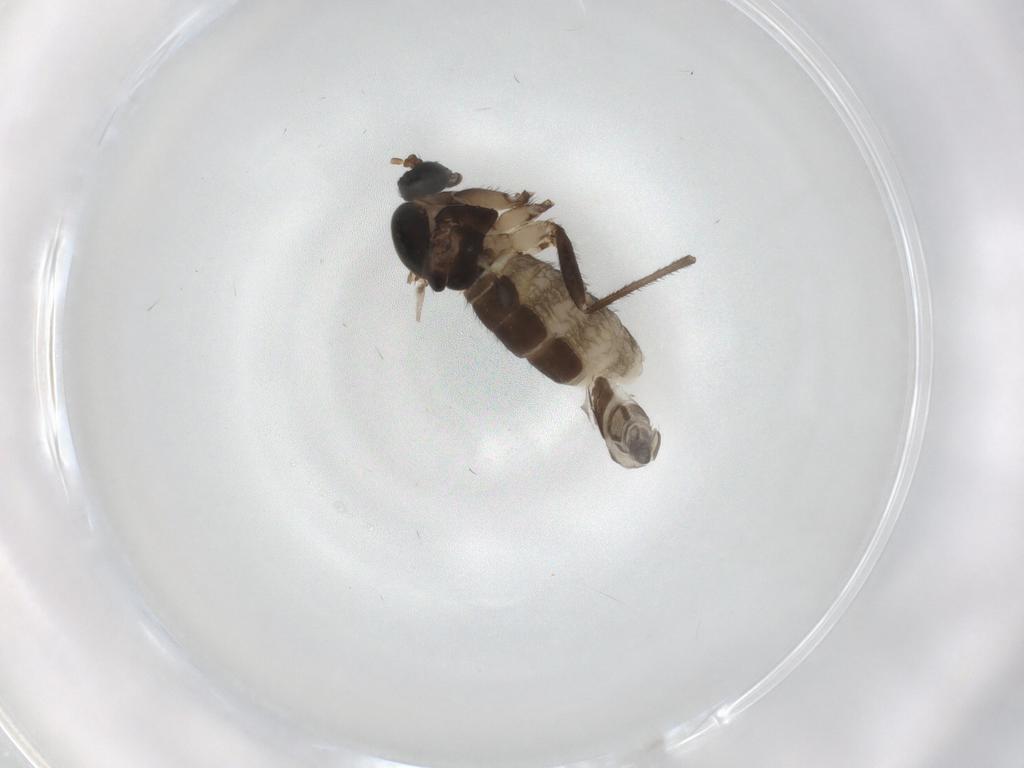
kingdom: Animalia
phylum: Arthropoda
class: Insecta
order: Diptera
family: Sciaridae
